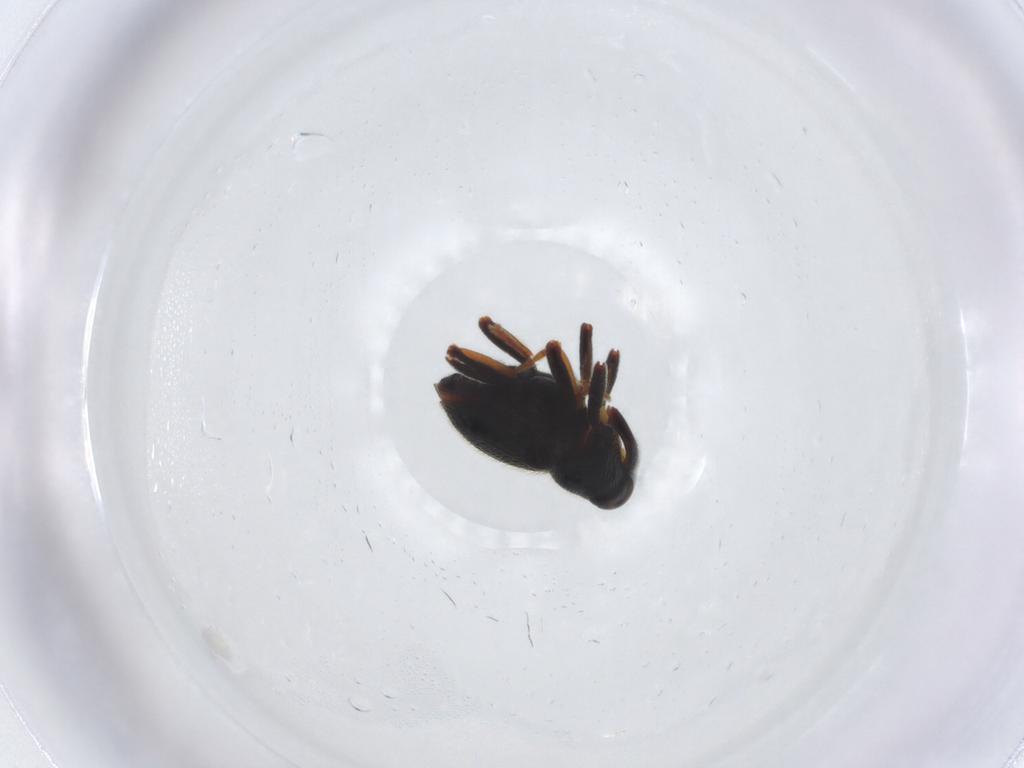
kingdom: Animalia
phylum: Arthropoda
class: Insecta
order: Coleoptera
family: Curculionidae
